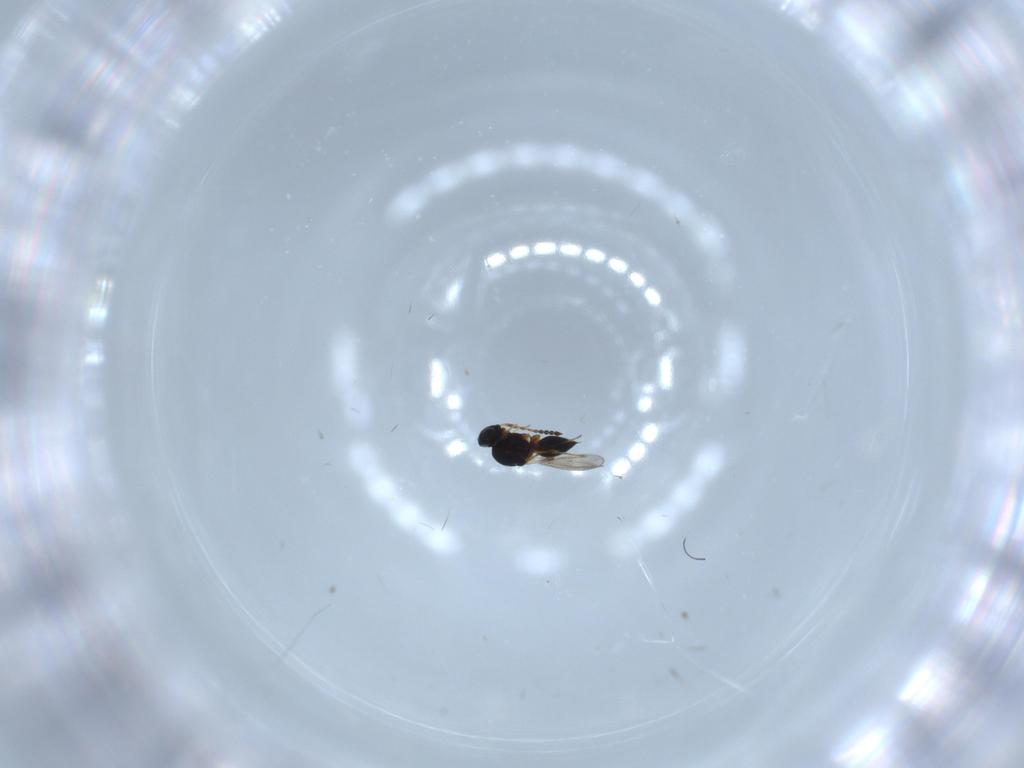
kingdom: Animalia
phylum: Arthropoda
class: Insecta
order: Hymenoptera
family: Platygastridae
